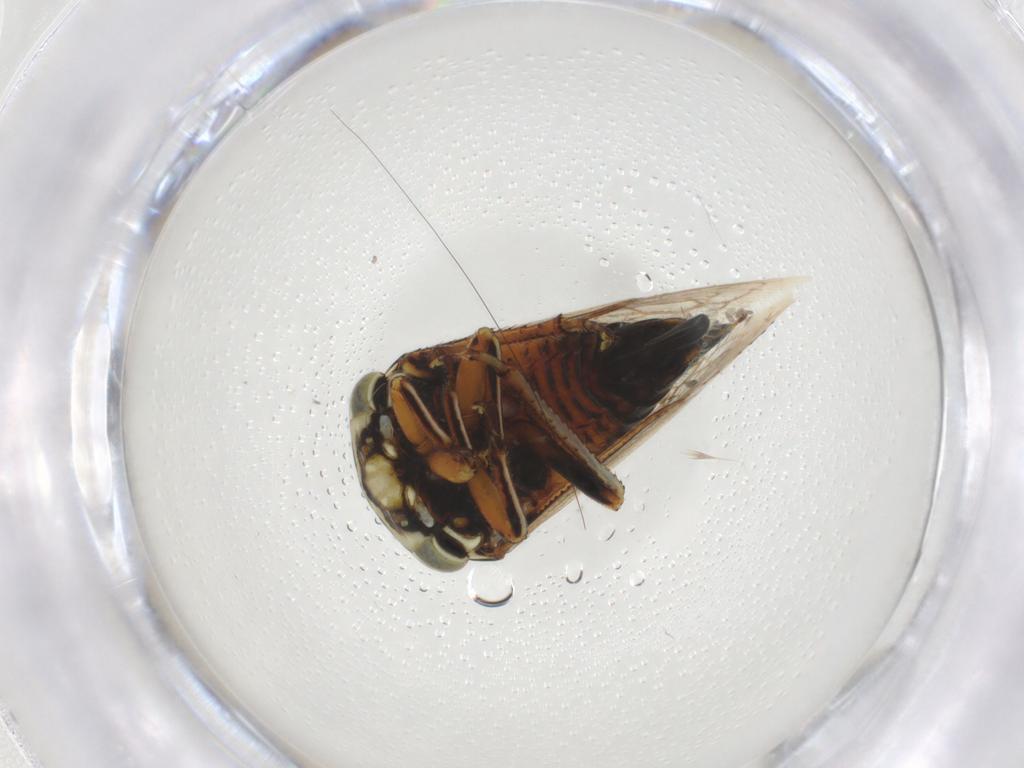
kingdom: Animalia
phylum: Arthropoda
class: Insecta
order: Hemiptera
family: Membracidae
